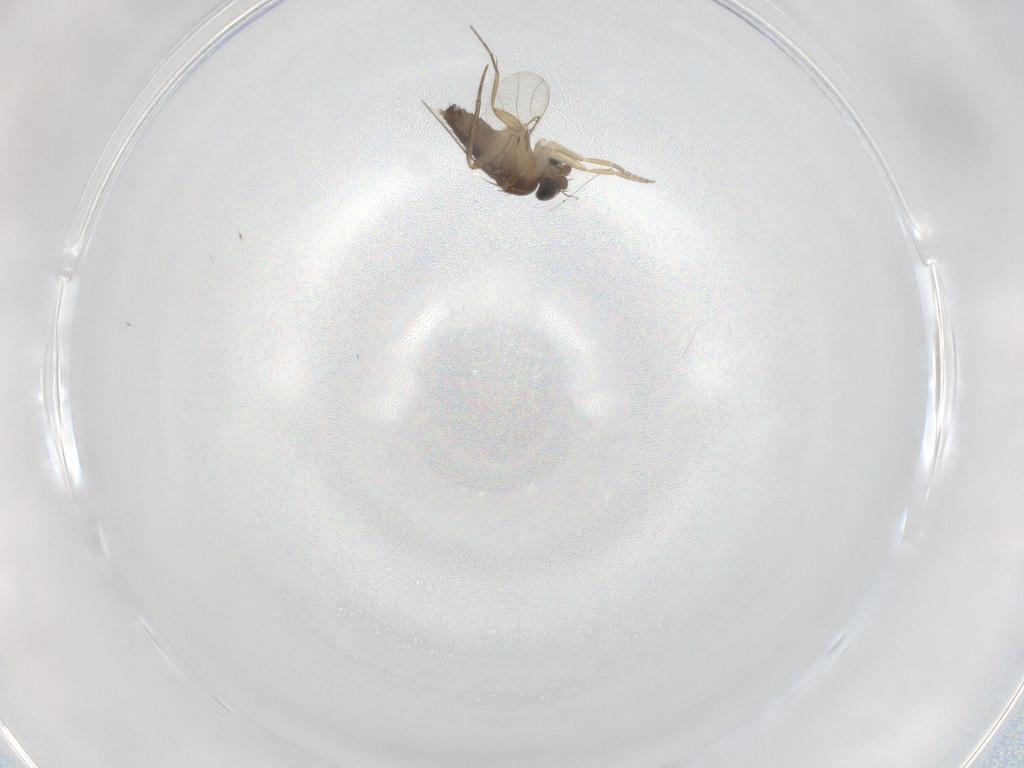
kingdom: Animalia
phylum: Arthropoda
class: Insecta
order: Diptera
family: Phoridae
